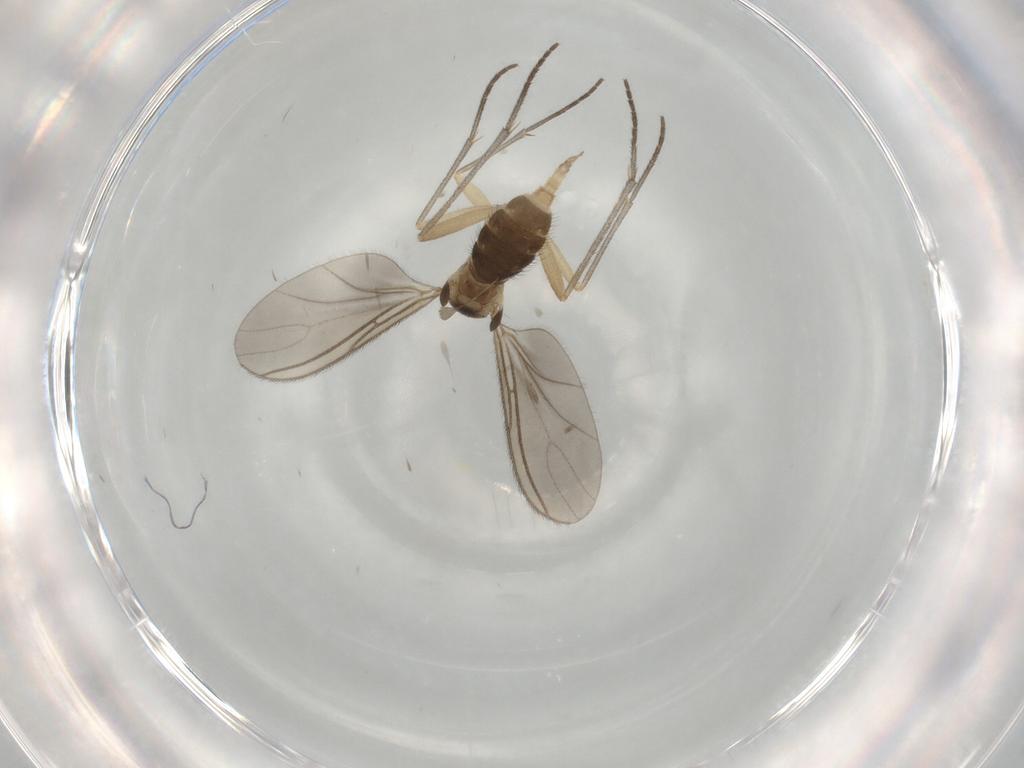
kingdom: Animalia
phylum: Arthropoda
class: Insecta
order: Diptera
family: Sciaridae
